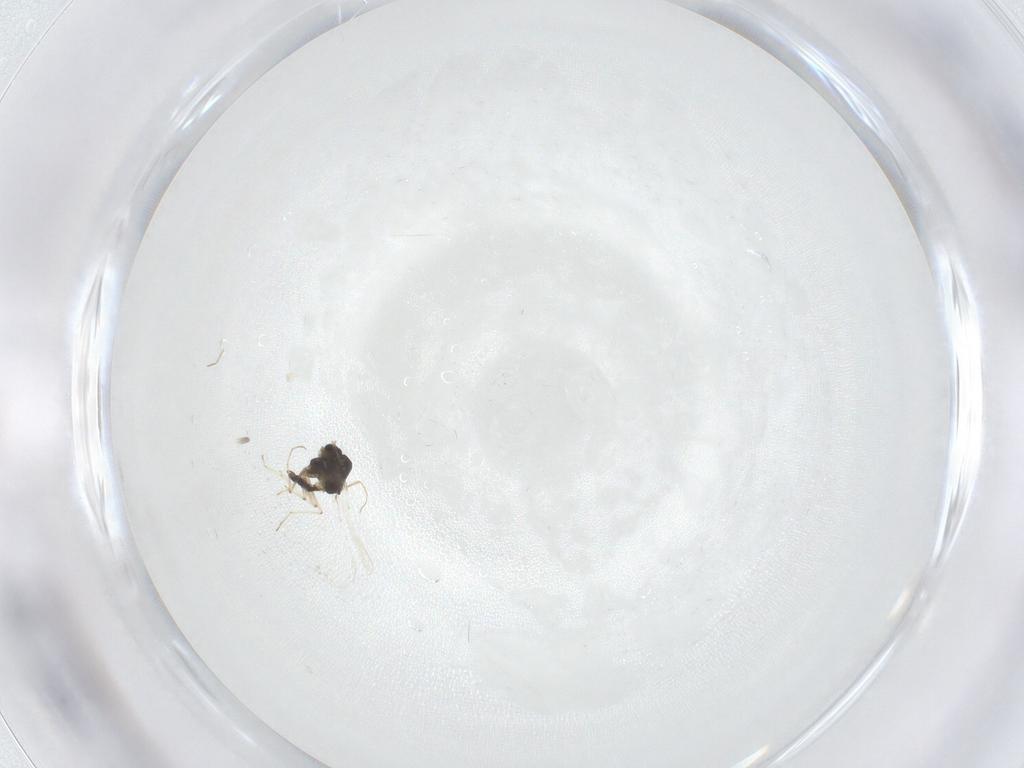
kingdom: Animalia
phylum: Arthropoda
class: Insecta
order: Diptera
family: Chironomidae
